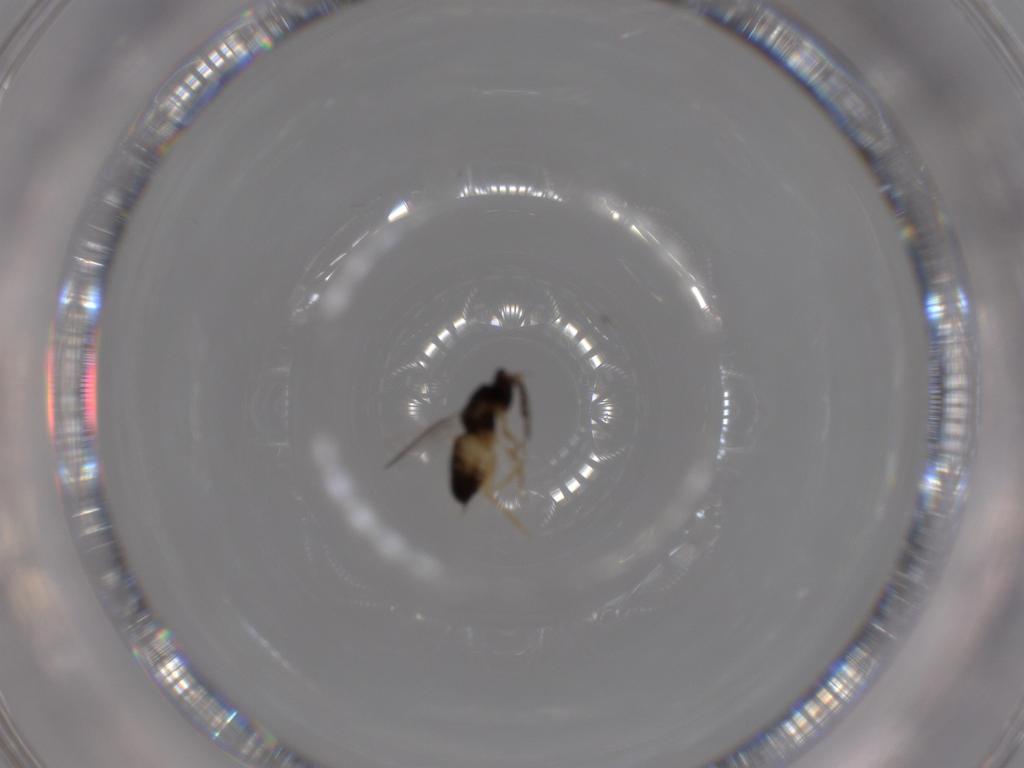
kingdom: Animalia
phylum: Arthropoda
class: Insecta
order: Hymenoptera
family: Eulophidae
